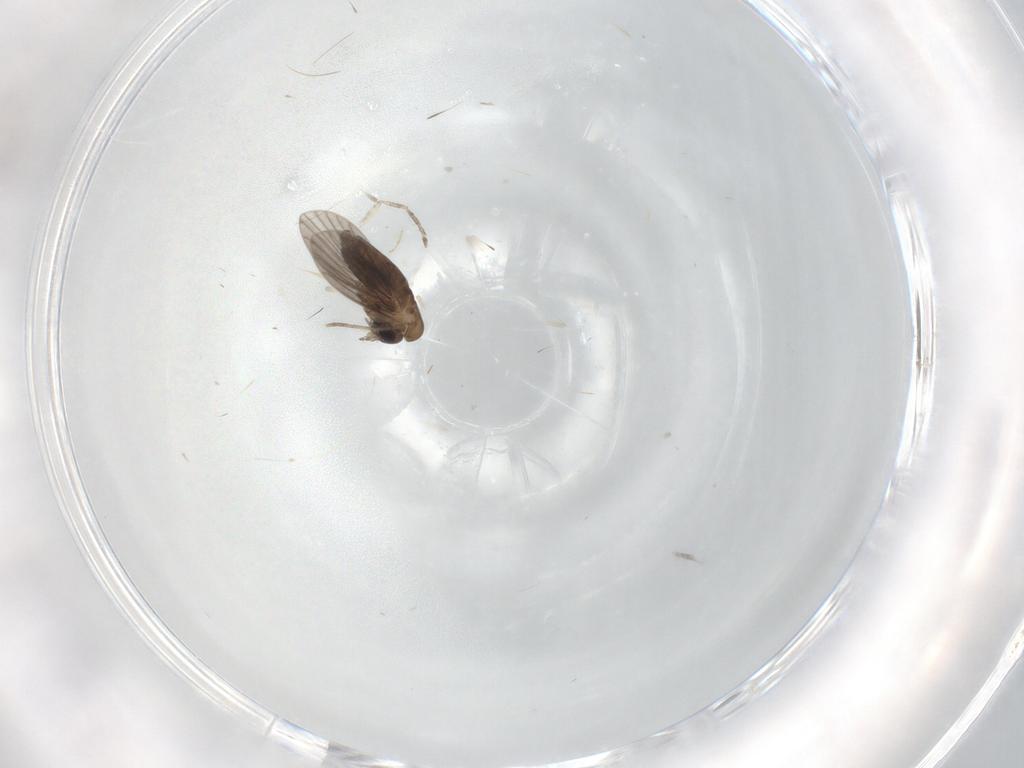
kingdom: Animalia
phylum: Arthropoda
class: Insecta
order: Diptera
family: Cecidomyiidae
